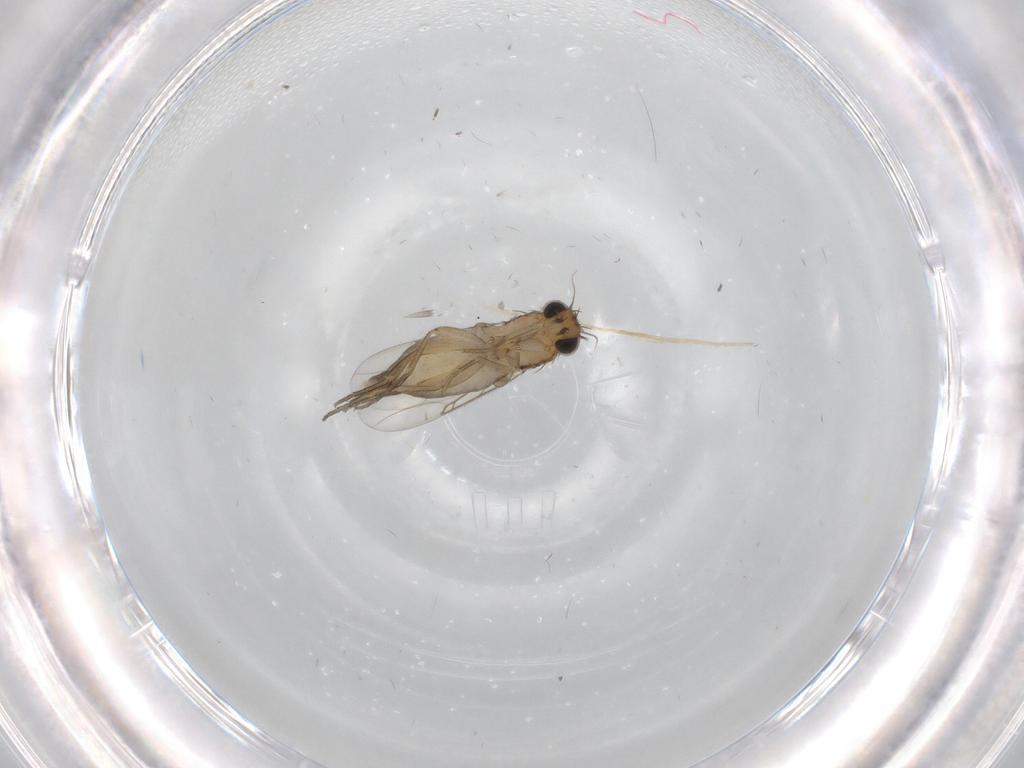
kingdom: Animalia
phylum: Arthropoda
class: Insecta
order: Diptera
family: Phoridae
